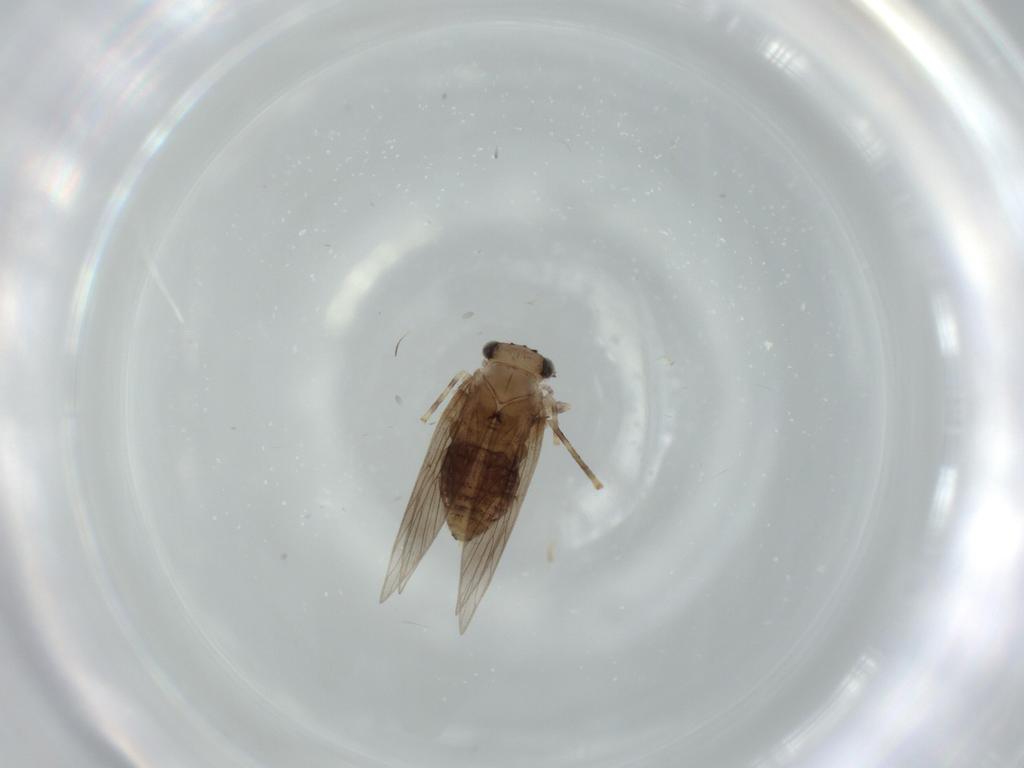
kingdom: Animalia
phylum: Arthropoda
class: Insecta
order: Psocodea
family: Lepidopsocidae
